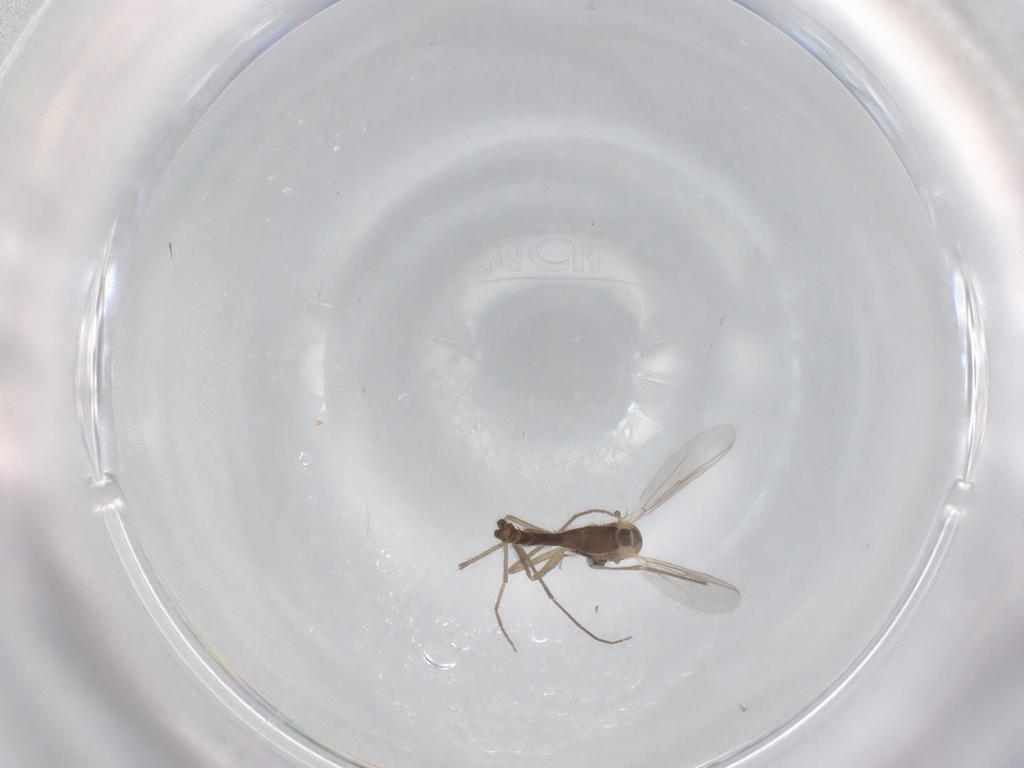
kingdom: Animalia
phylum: Arthropoda
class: Insecta
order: Diptera
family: Chironomidae
